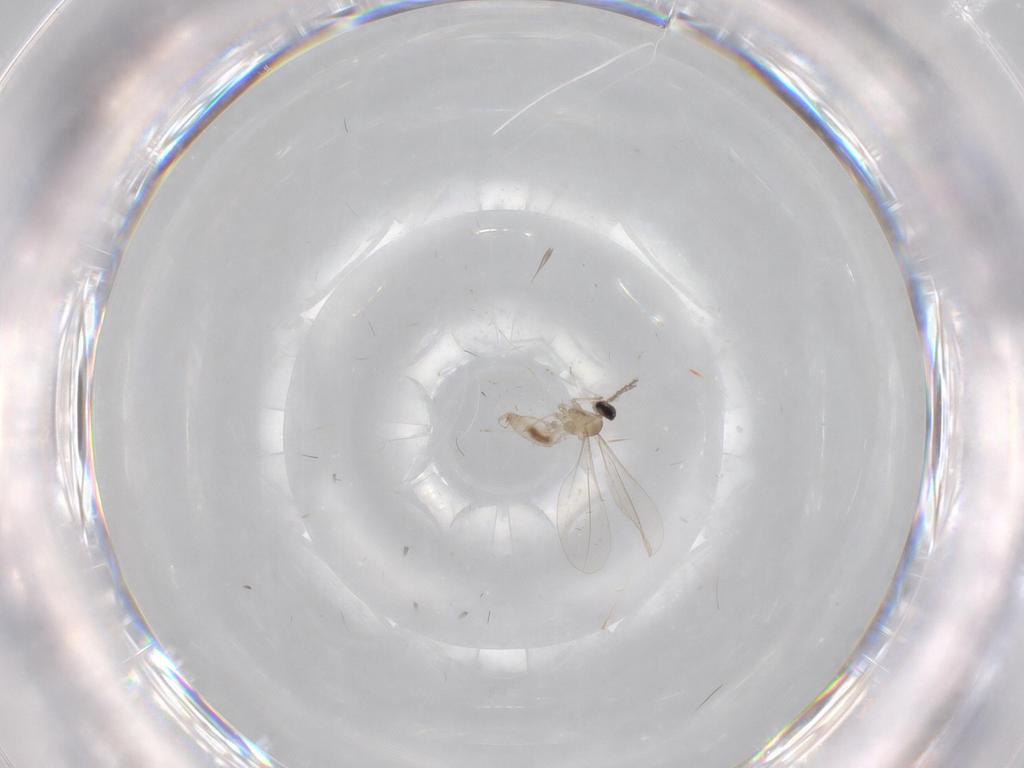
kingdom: Animalia
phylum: Arthropoda
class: Insecta
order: Diptera
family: Cecidomyiidae
